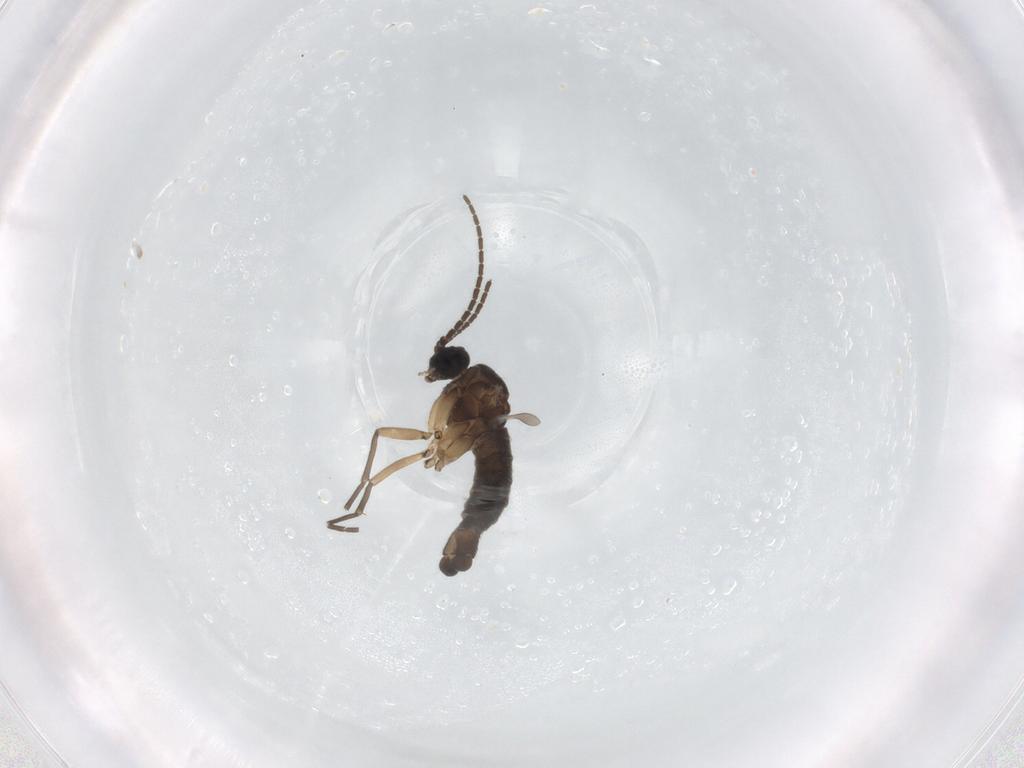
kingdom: Animalia
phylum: Arthropoda
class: Insecta
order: Diptera
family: Sciaridae
